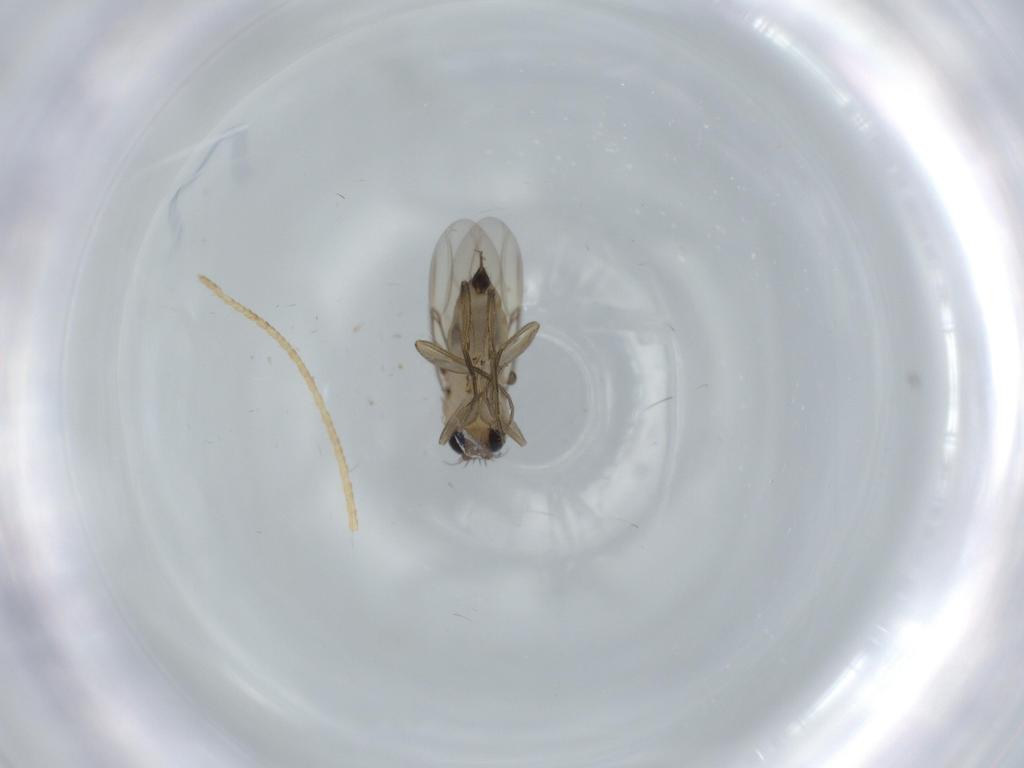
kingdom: Animalia
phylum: Arthropoda
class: Insecta
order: Diptera
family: Phoridae
